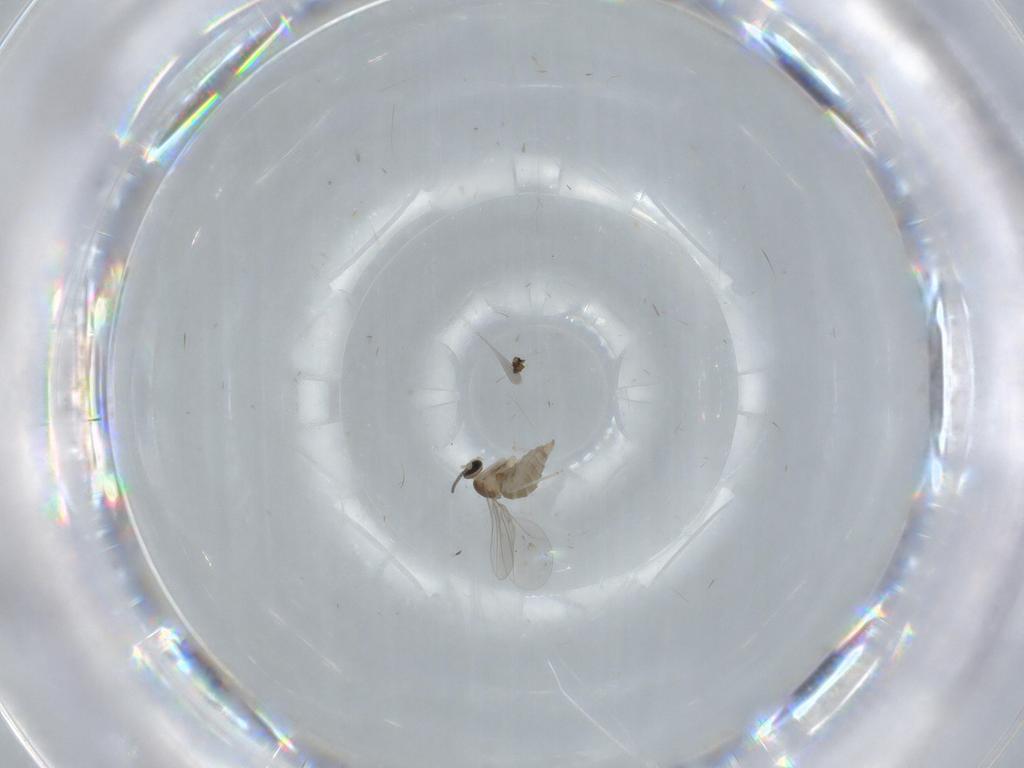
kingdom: Animalia
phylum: Arthropoda
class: Insecta
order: Diptera
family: Cecidomyiidae
